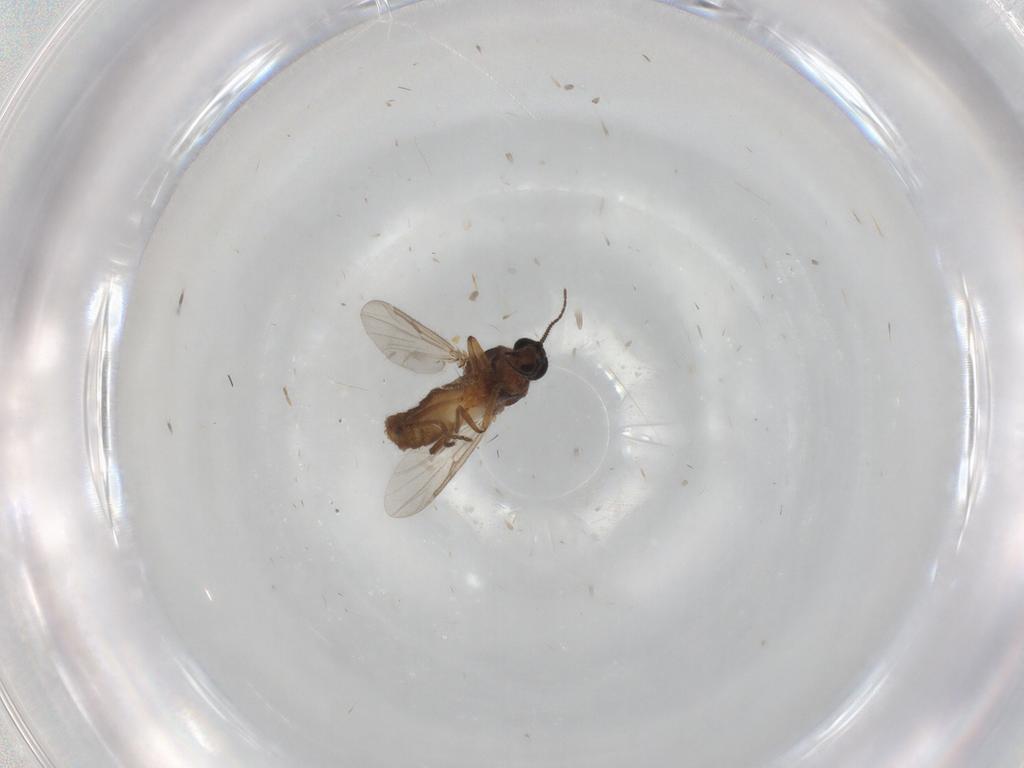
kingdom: Animalia
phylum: Arthropoda
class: Insecta
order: Diptera
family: Ceratopogonidae
